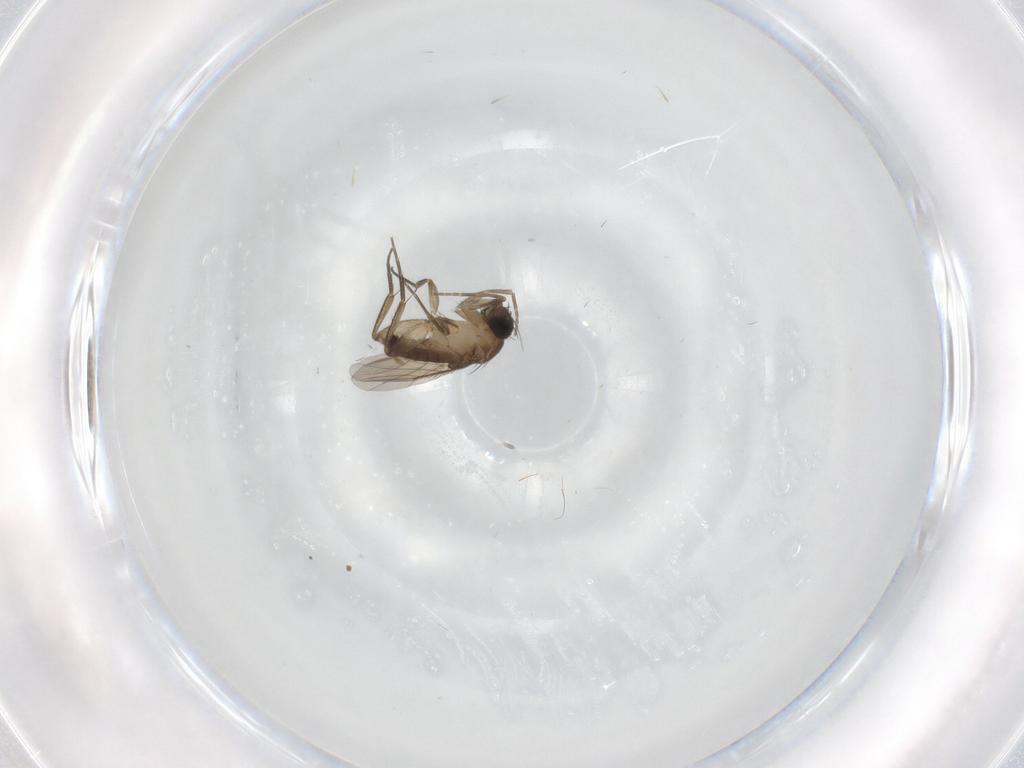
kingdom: Animalia
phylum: Arthropoda
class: Insecta
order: Diptera
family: Phoridae
